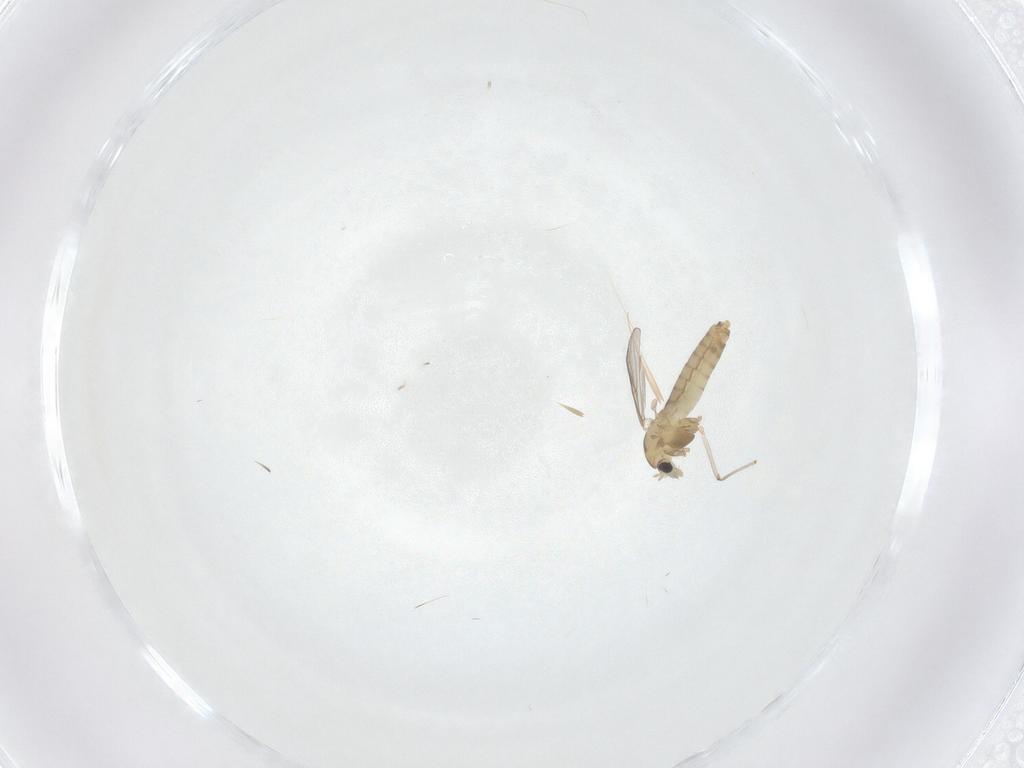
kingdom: Animalia
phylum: Arthropoda
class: Insecta
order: Diptera
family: Chironomidae
